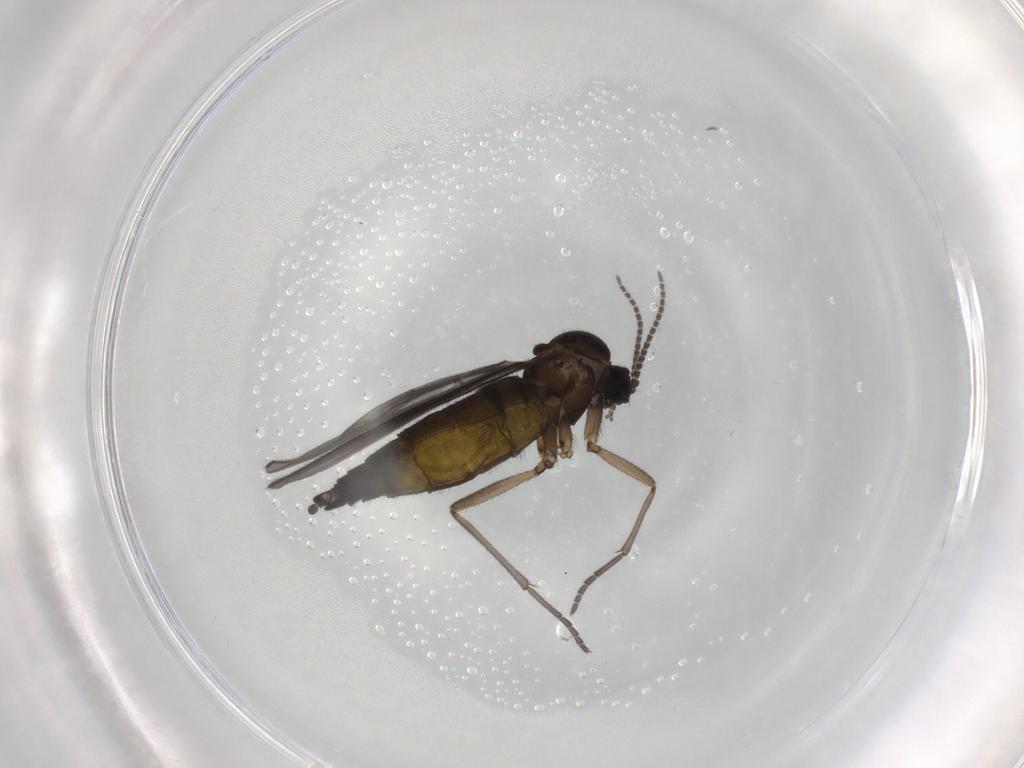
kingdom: Animalia
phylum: Arthropoda
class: Insecta
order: Diptera
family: Sciaridae
